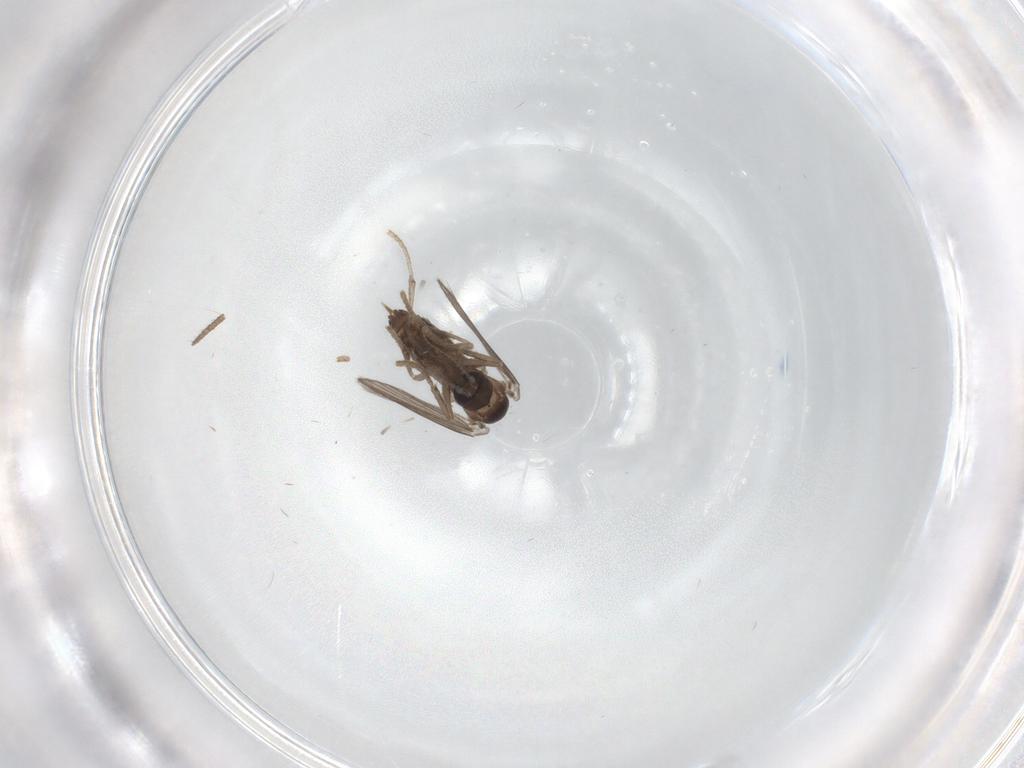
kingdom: Animalia
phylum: Arthropoda
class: Insecta
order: Diptera
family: Psychodidae
